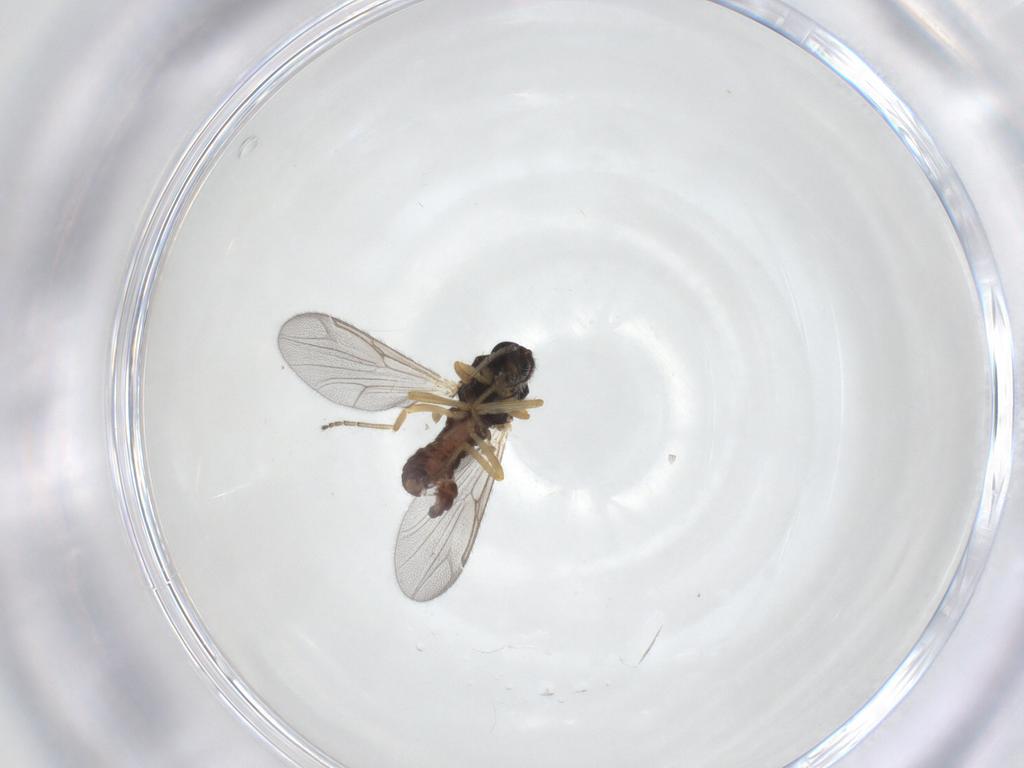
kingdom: Animalia
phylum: Arthropoda
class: Insecta
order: Diptera
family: Ceratopogonidae
